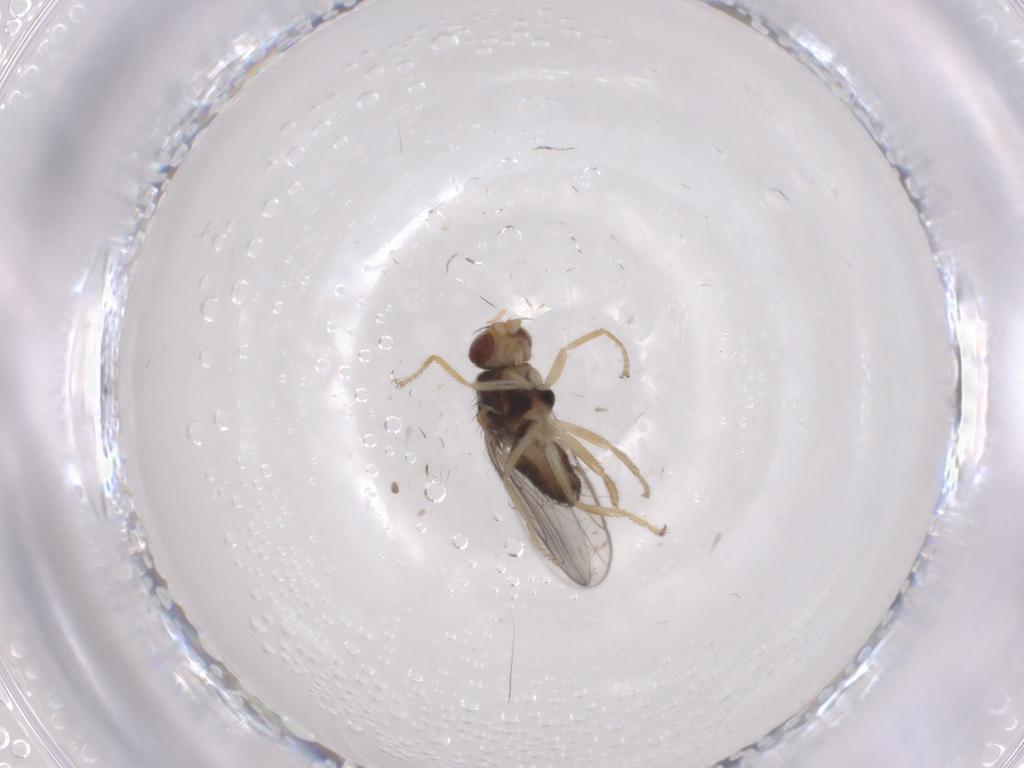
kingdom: Animalia
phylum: Arthropoda
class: Insecta
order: Diptera
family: Chloropidae
